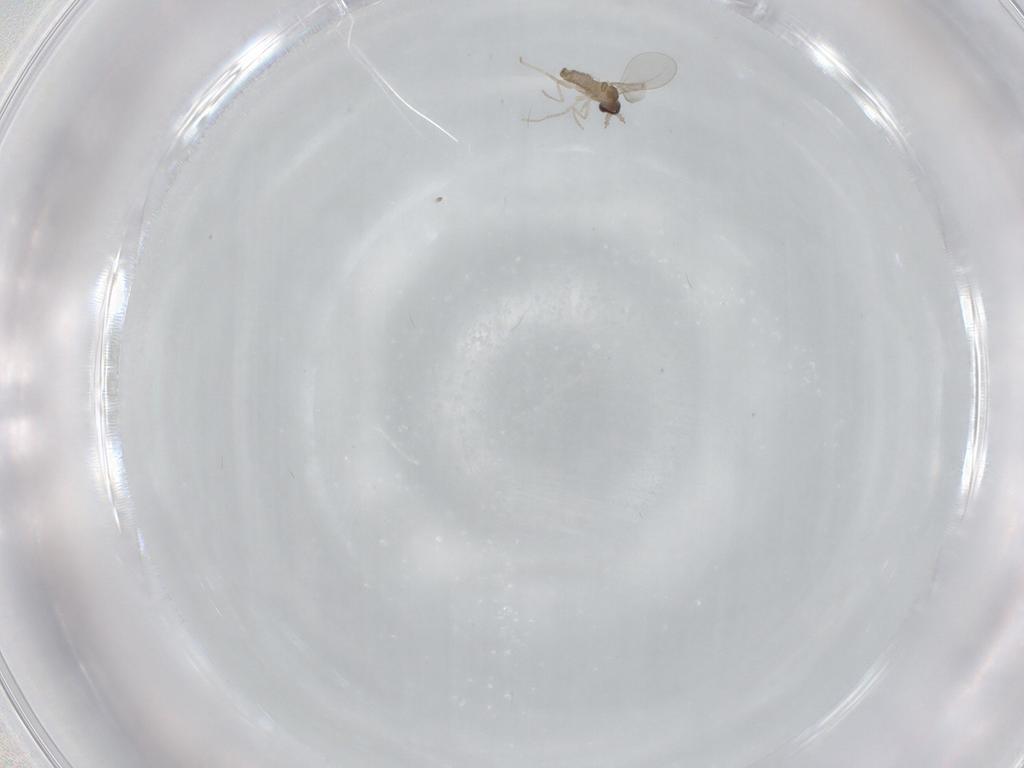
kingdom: Animalia
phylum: Arthropoda
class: Insecta
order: Diptera
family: Cecidomyiidae
